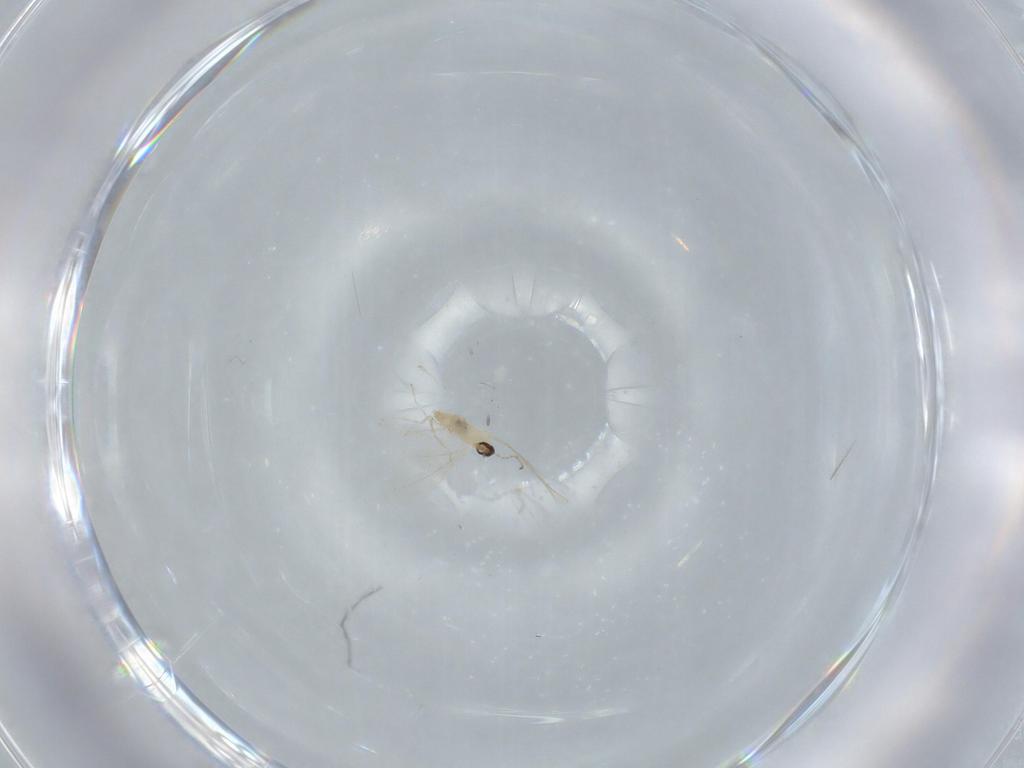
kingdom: Animalia
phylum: Arthropoda
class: Insecta
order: Diptera
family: Cecidomyiidae
